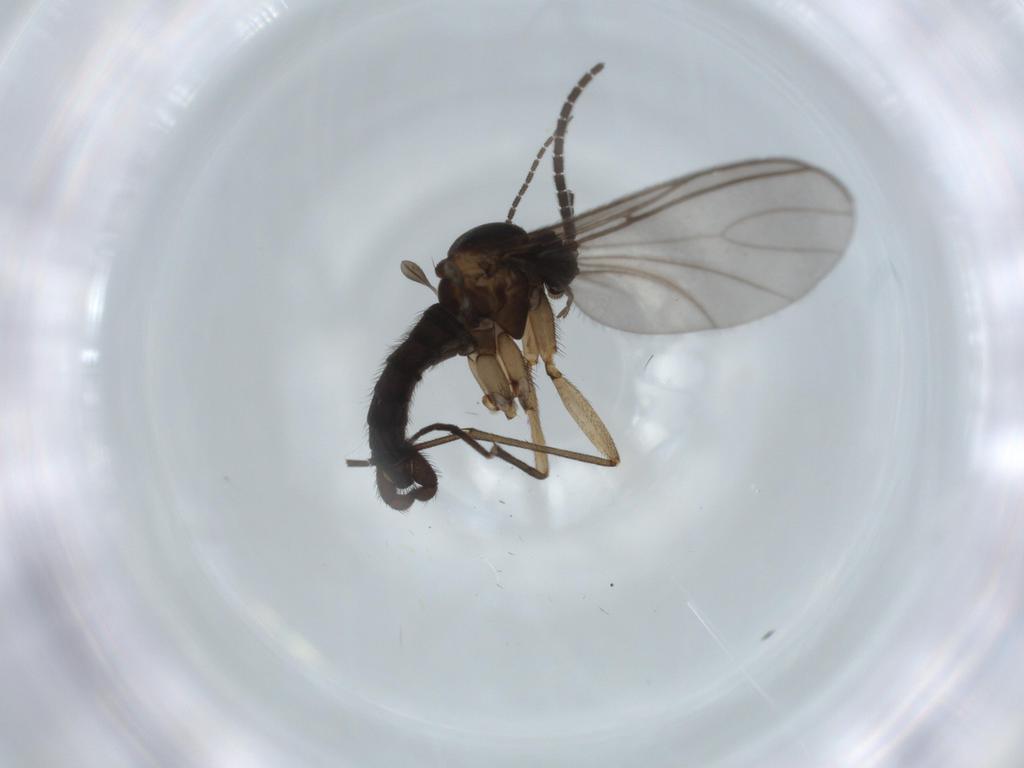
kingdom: Animalia
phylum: Arthropoda
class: Insecta
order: Diptera
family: Sciaridae
